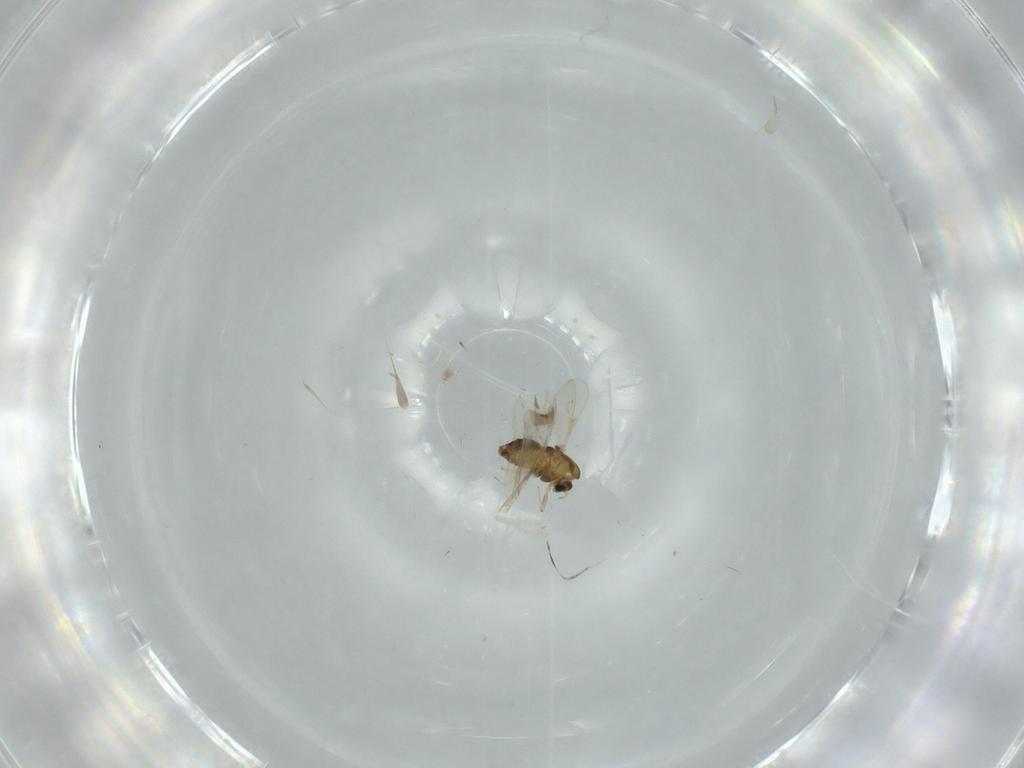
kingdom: Animalia
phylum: Arthropoda
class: Insecta
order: Diptera
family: Chironomidae
